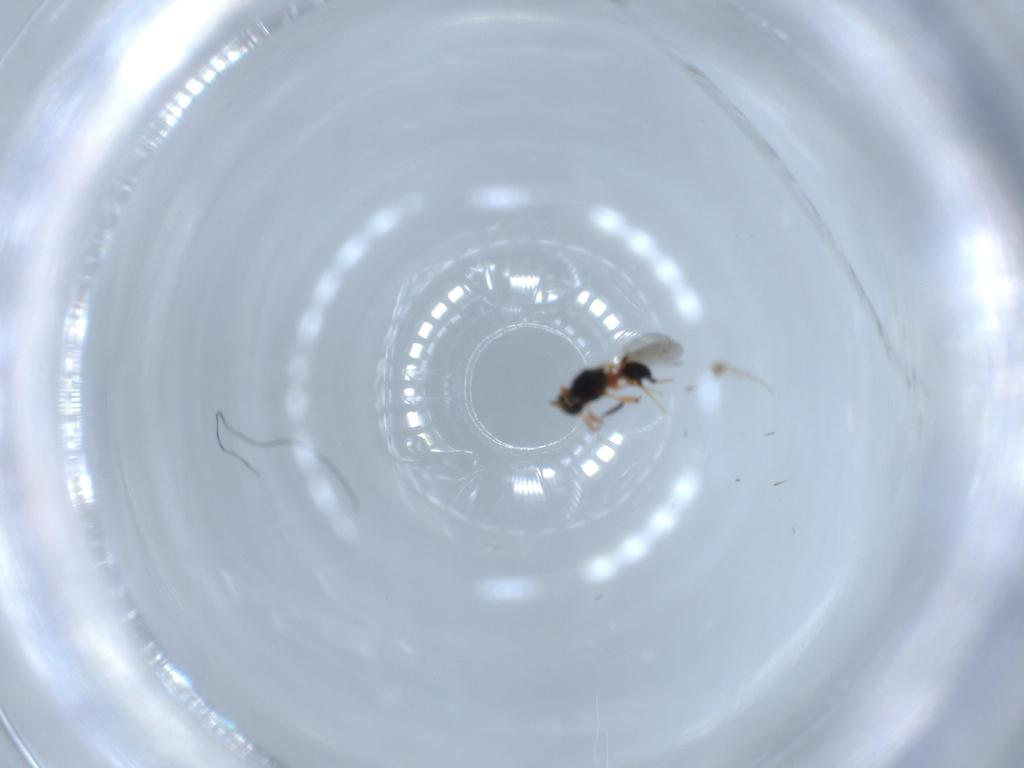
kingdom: Animalia
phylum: Arthropoda
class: Insecta
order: Hymenoptera
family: Platygastridae
